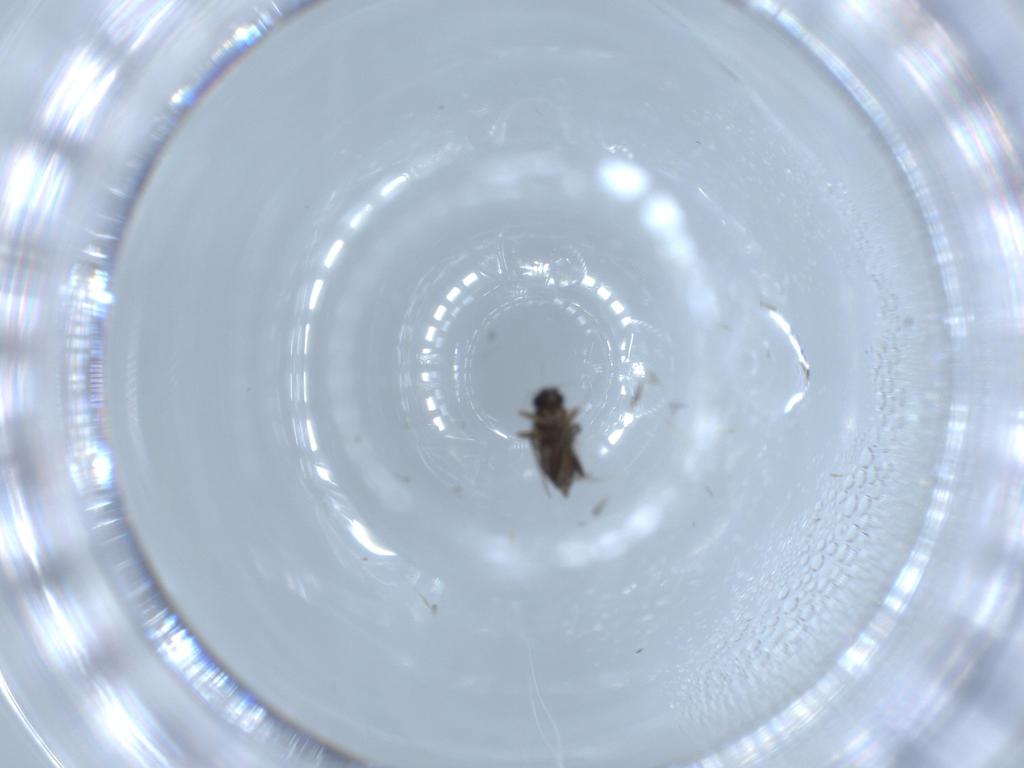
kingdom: Animalia
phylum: Arthropoda
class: Insecta
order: Diptera
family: Phoridae
